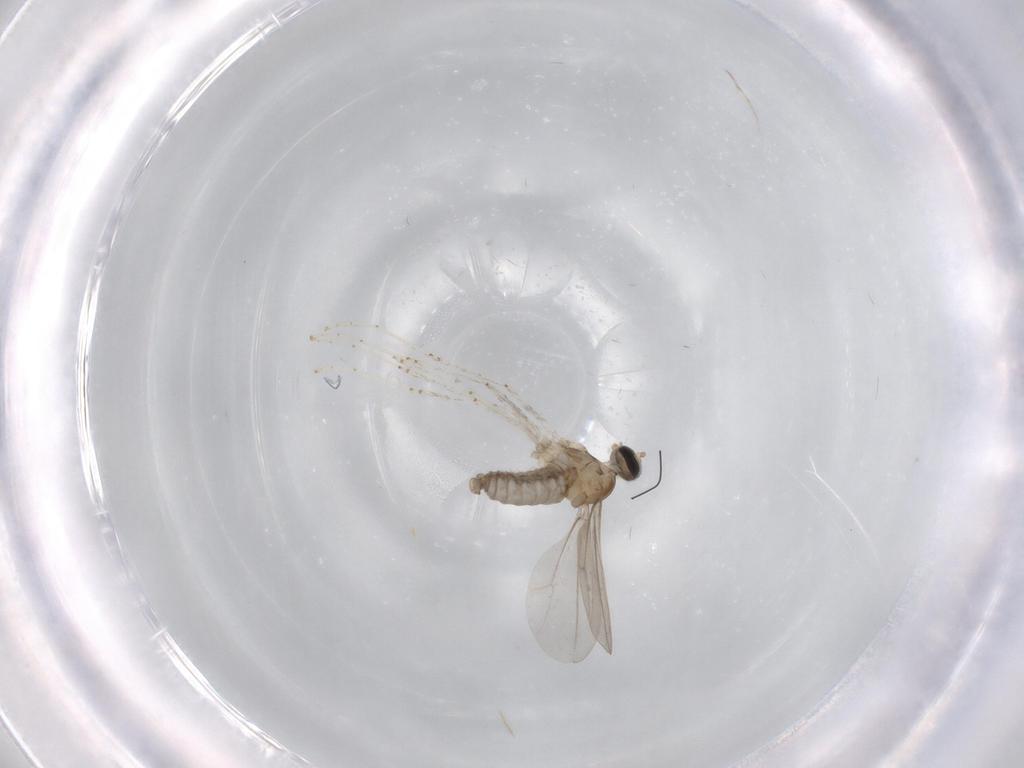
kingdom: Animalia
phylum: Arthropoda
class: Insecta
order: Diptera
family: Cecidomyiidae
